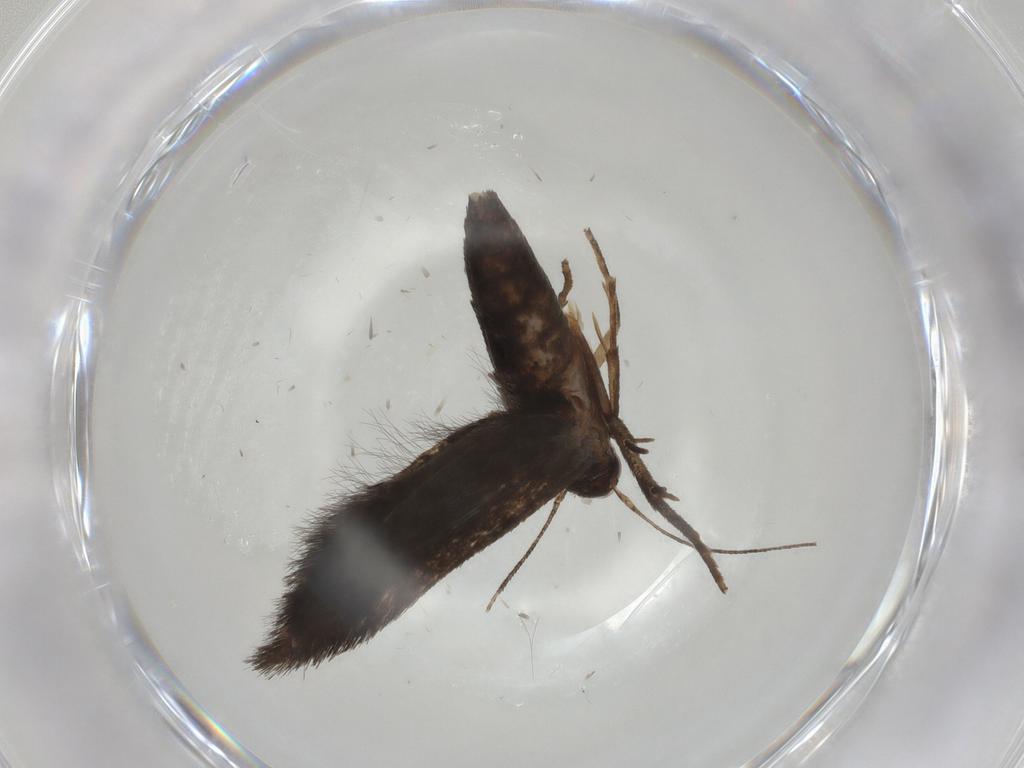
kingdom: Animalia
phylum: Arthropoda
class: Insecta
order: Lepidoptera
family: Crambidae
